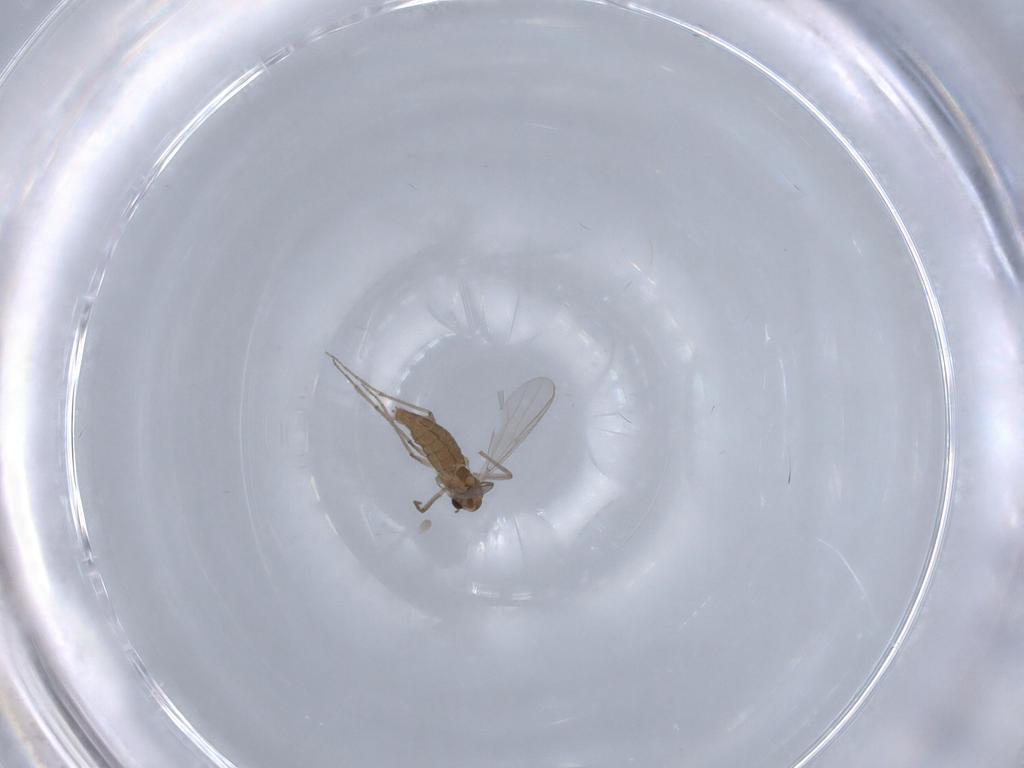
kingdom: Animalia
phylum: Arthropoda
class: Insecta
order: Diptera
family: Chironomidae
